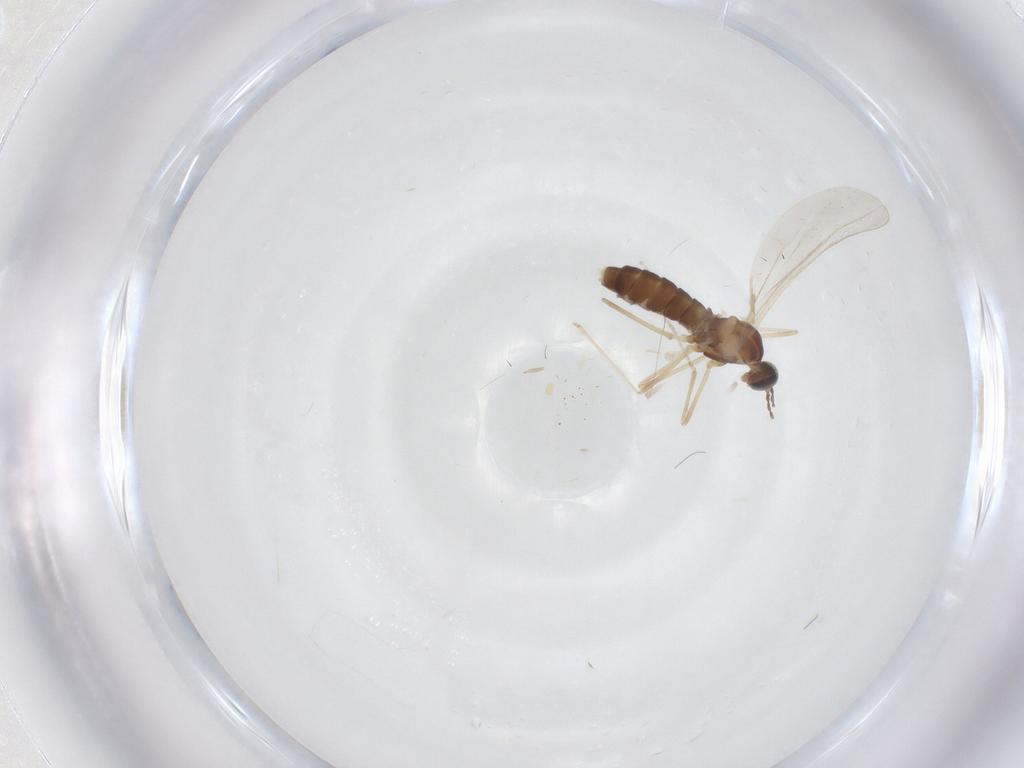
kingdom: Animalia
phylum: Arthropoda
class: Insecta
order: Diptera
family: Cecidomyiidae
